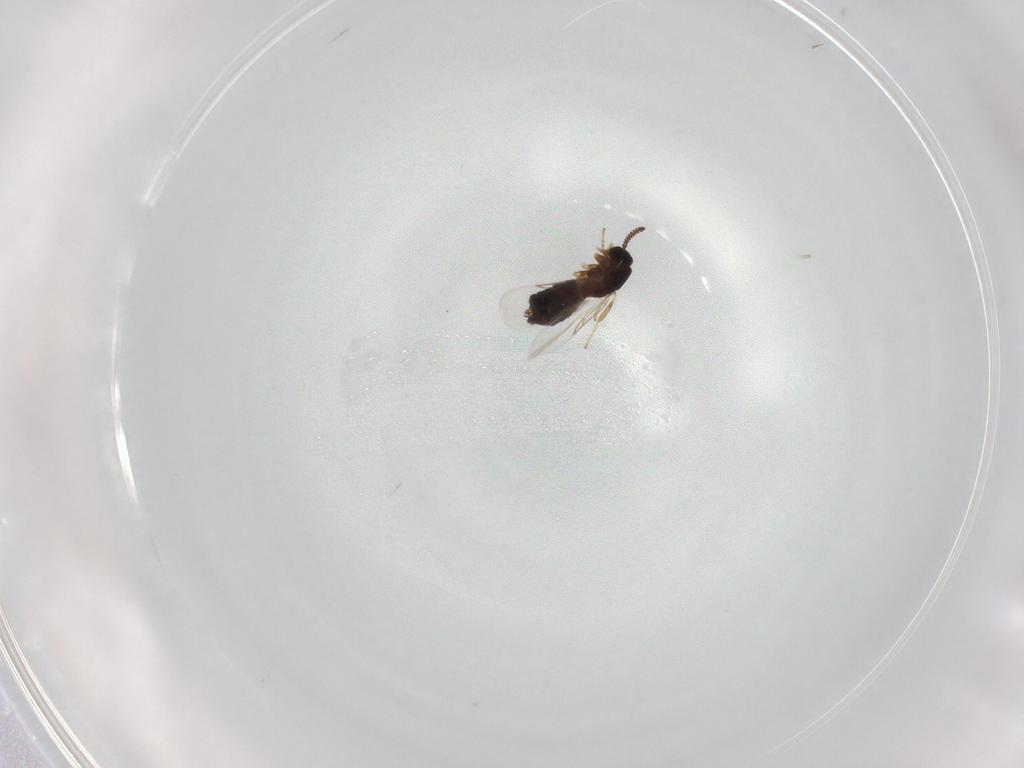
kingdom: Animalia
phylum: Arthropoda
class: Insecta
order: Diptera
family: Scatopsidae
